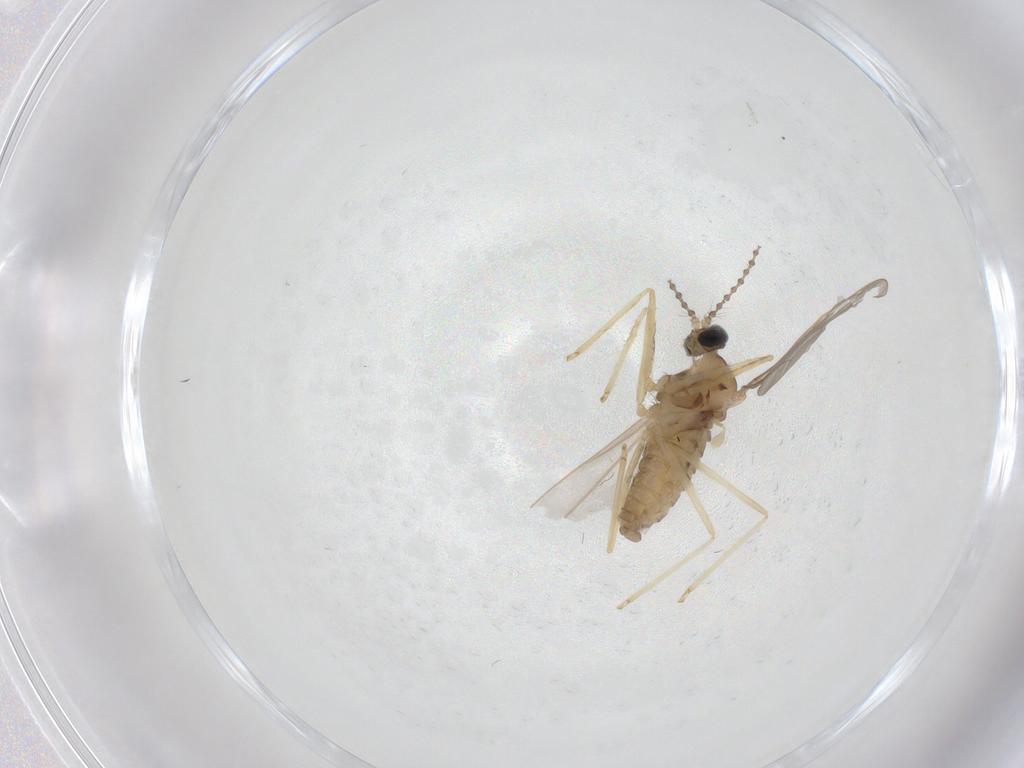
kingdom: Animalia
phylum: Arthropoda
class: Insecta
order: Diptera
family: Cecidomyiidae
